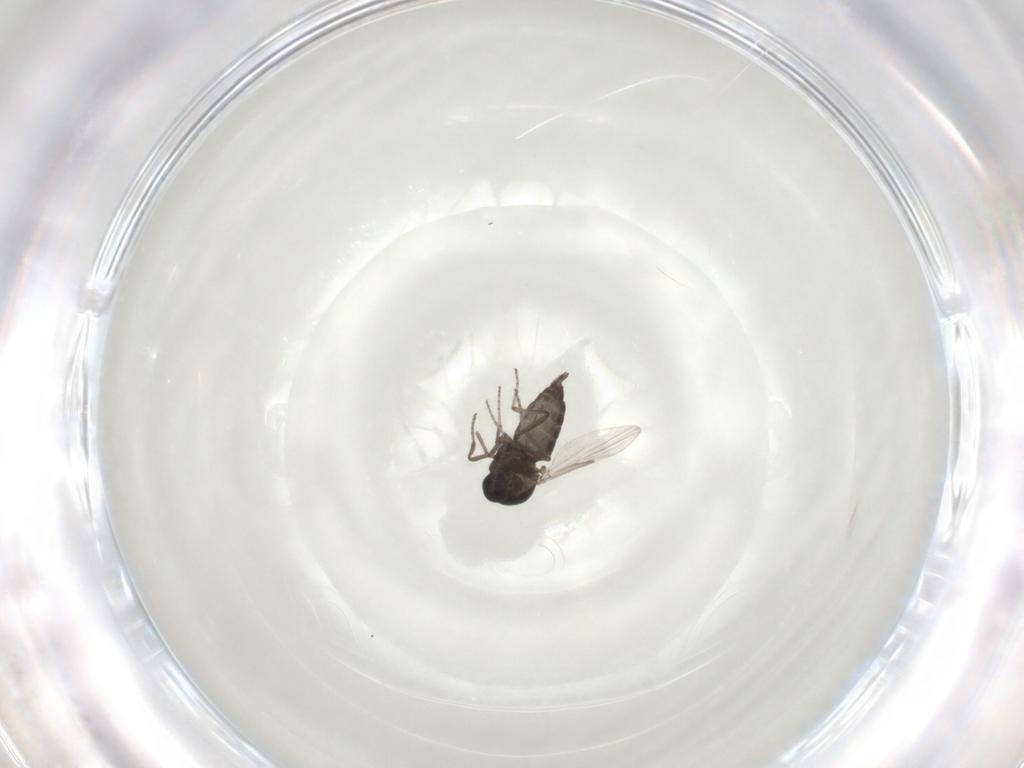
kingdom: Animalia
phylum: Arthropoda
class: Insecta
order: Diptera
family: Ceratopogonidae
